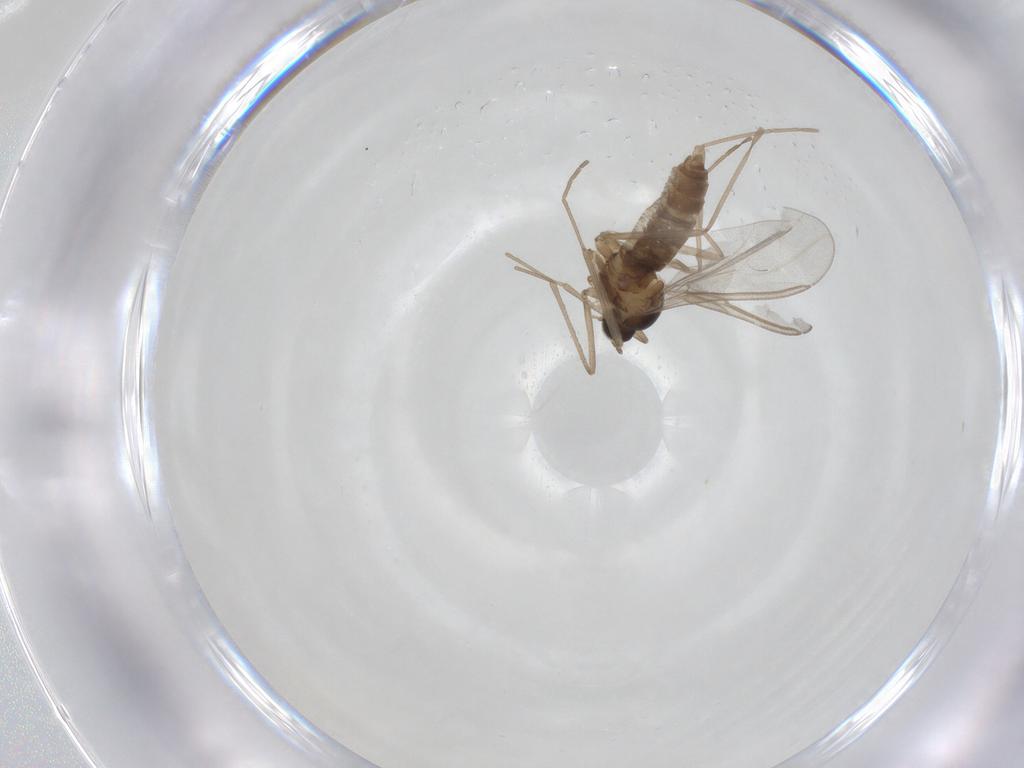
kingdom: Animalia
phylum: Arthropoda
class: Insecta
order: Diptera
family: Cecidomyiidae
